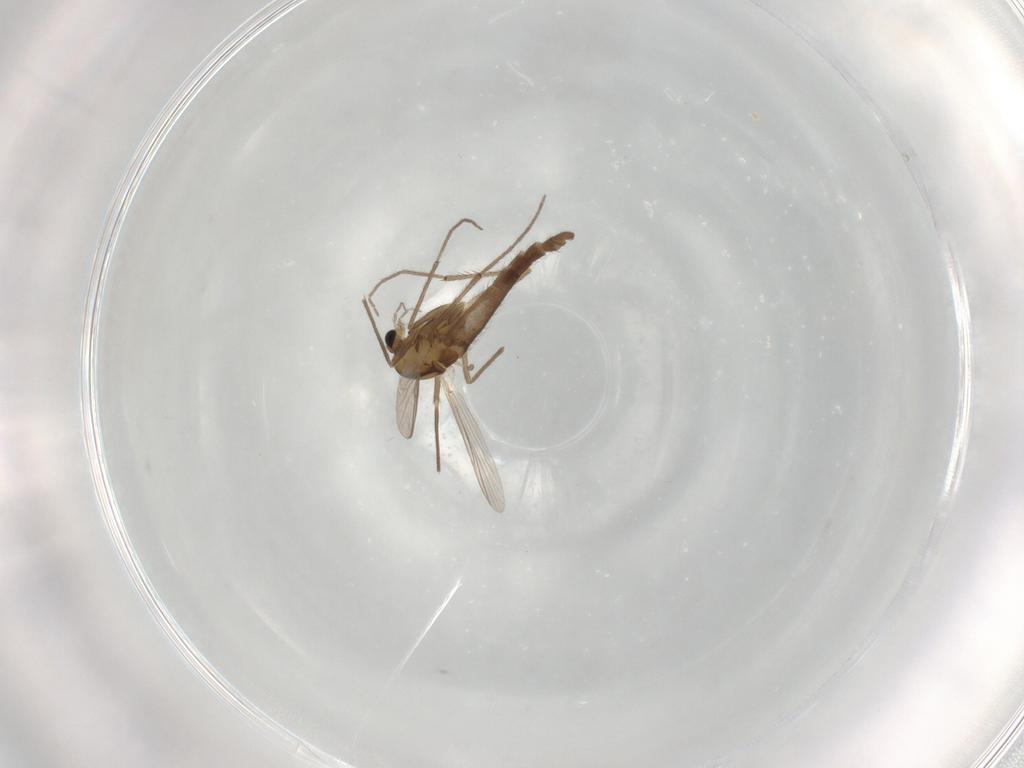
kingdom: Animalia
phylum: Arthropoda
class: Insecta
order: Diptera
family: Chironomidae
